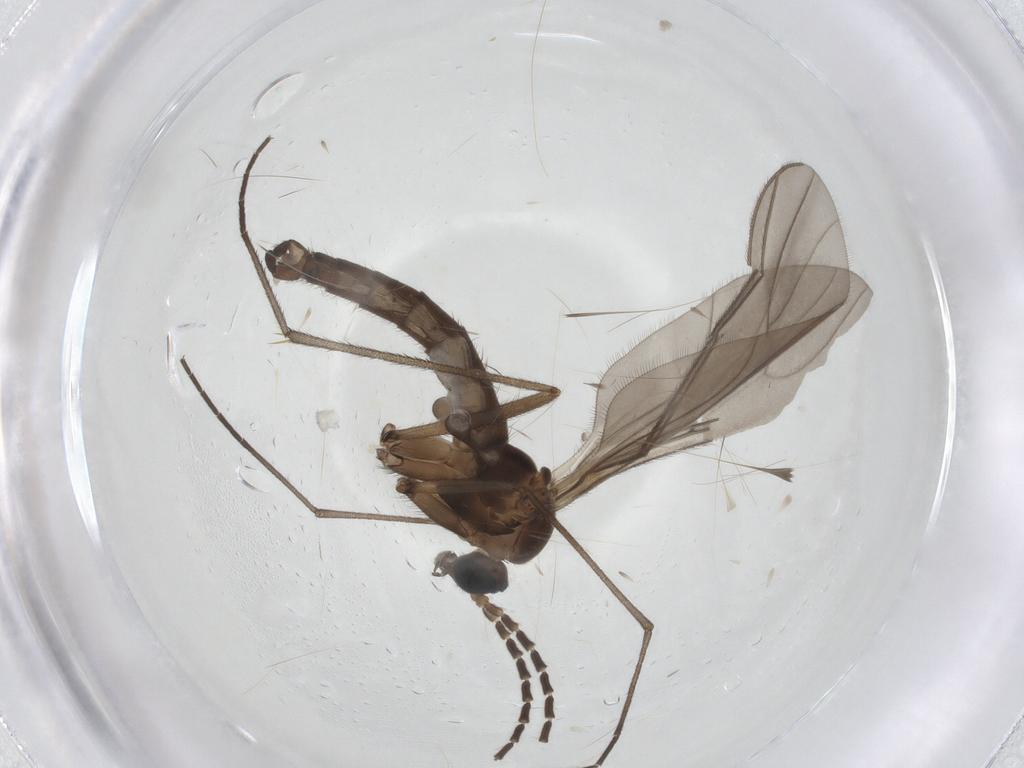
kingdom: Animalia
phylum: Arthropoda
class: Insecta
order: Diptera
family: Sciaridae
